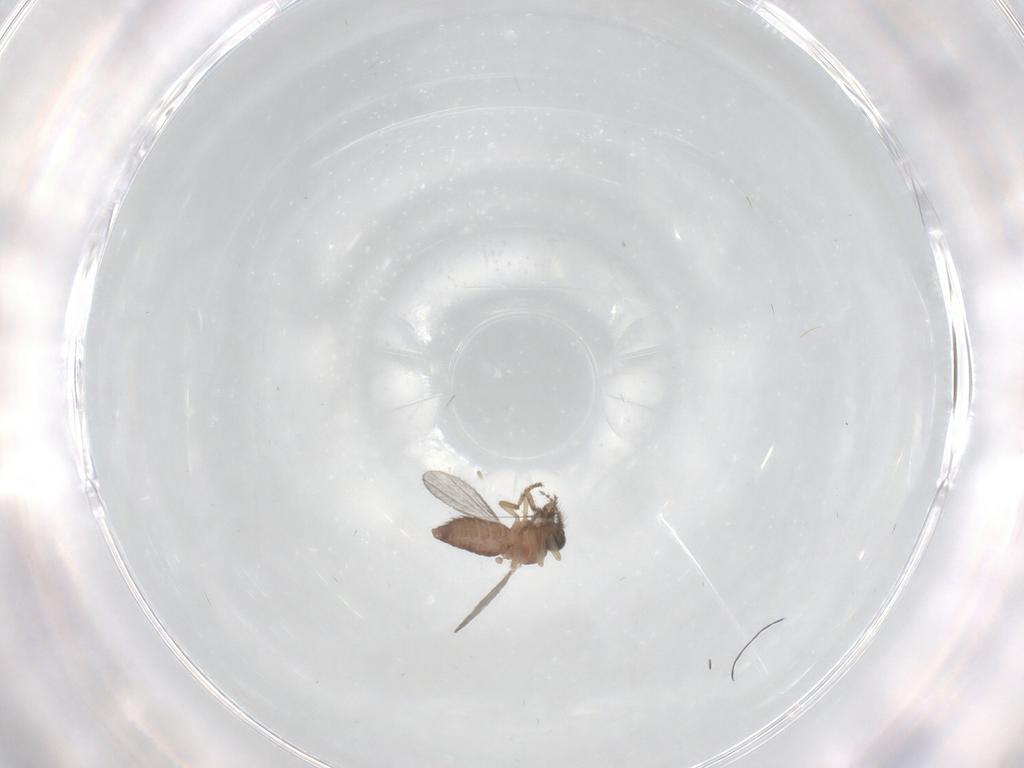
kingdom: Animalia
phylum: Arthropoda
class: Insecta
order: Diptera
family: Ceratopogonidae
